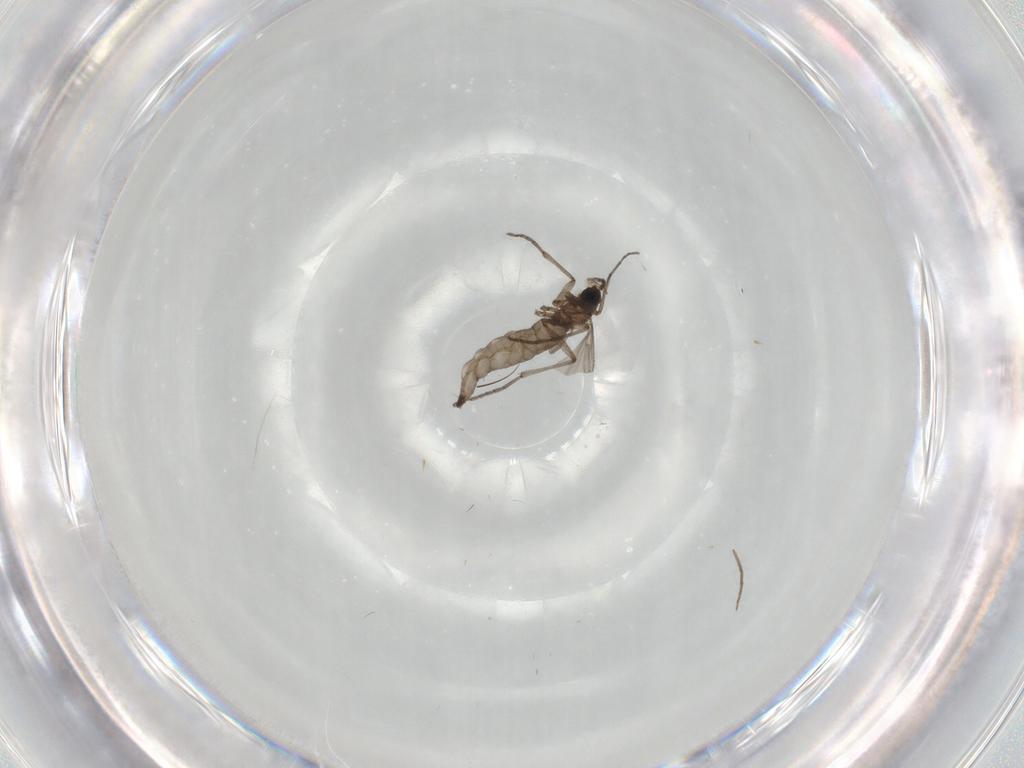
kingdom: Animalia
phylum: Arthropoda
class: Insecta
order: Diptera
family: Sciaridae
